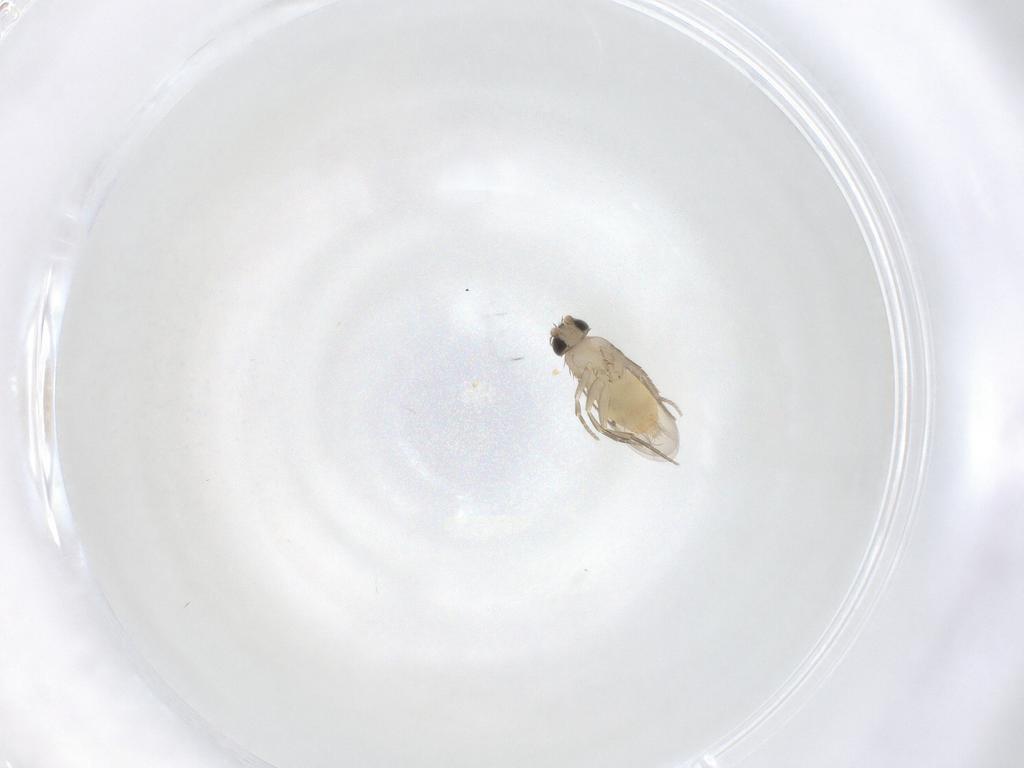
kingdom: Animalia
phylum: Arthropoda
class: Insecta
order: Diptera
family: Phoridae
